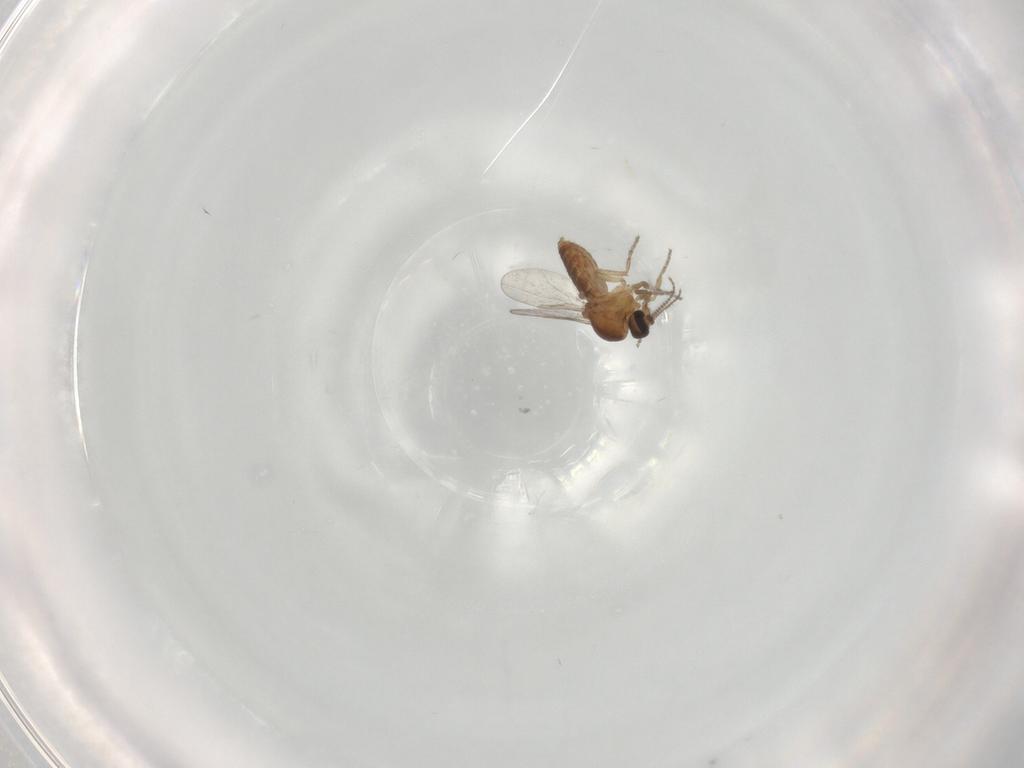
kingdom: Animalia
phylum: Arthropoda
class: Insecta
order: Diptera
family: Ceratopogonidae
